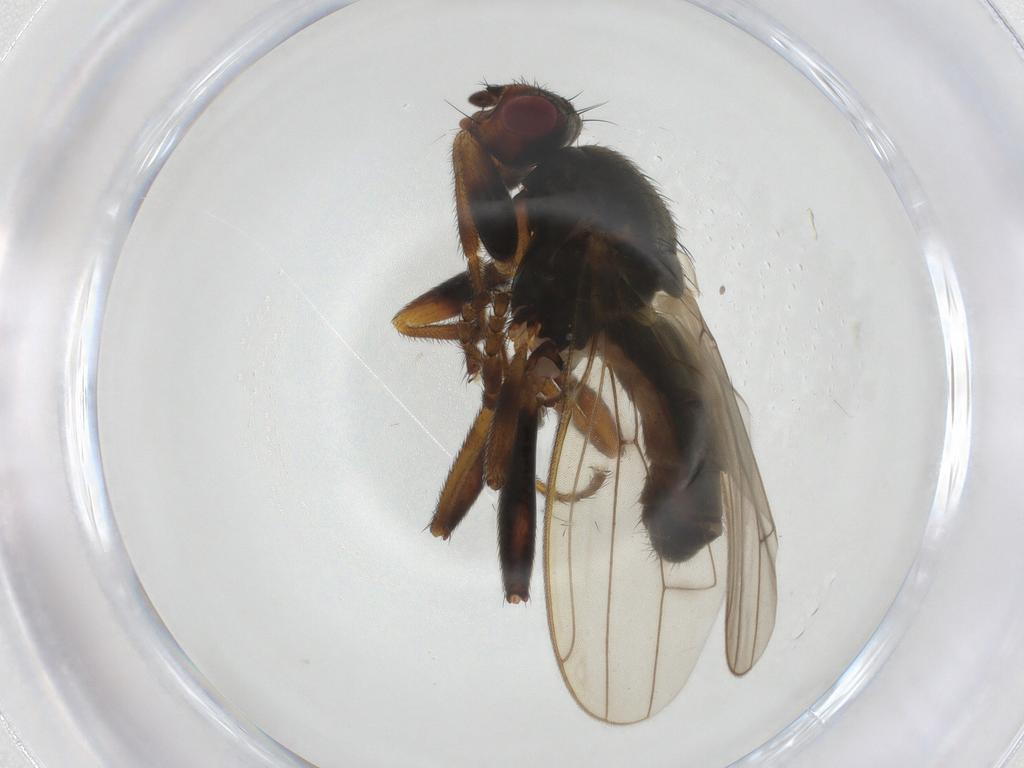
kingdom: Animalia
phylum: Arthropoda
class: Insecta
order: Diptera
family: Sphaeroceridae
